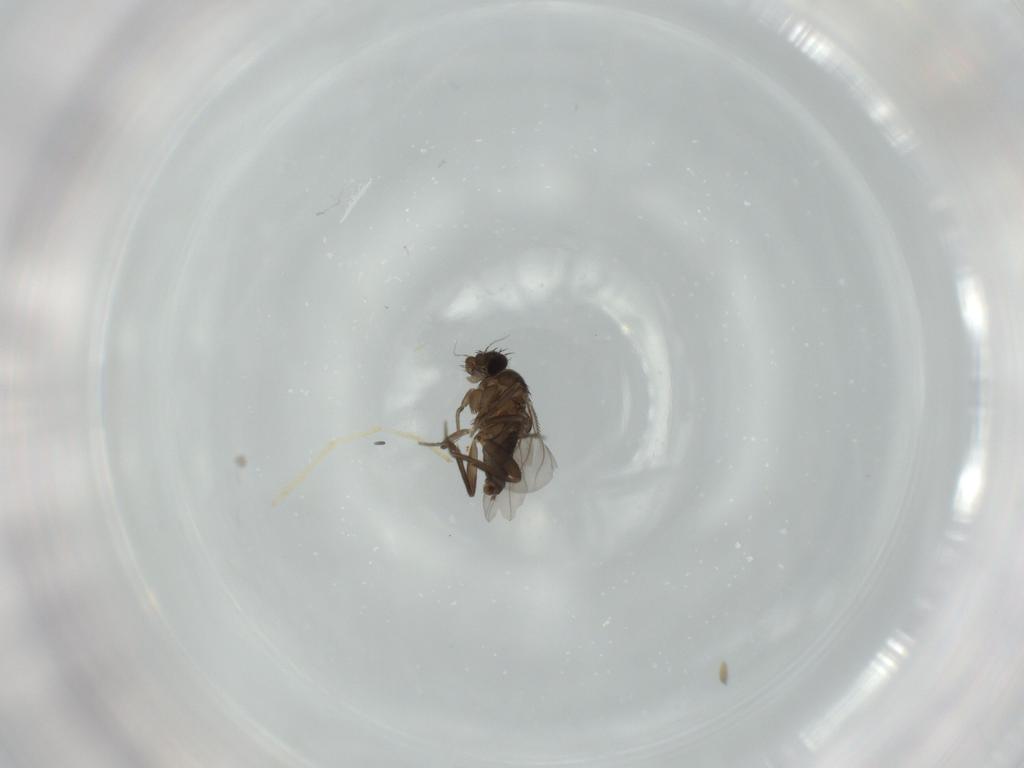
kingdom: Animalia
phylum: Arthropoda
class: Insecta
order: Diptera
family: Chironomidae
